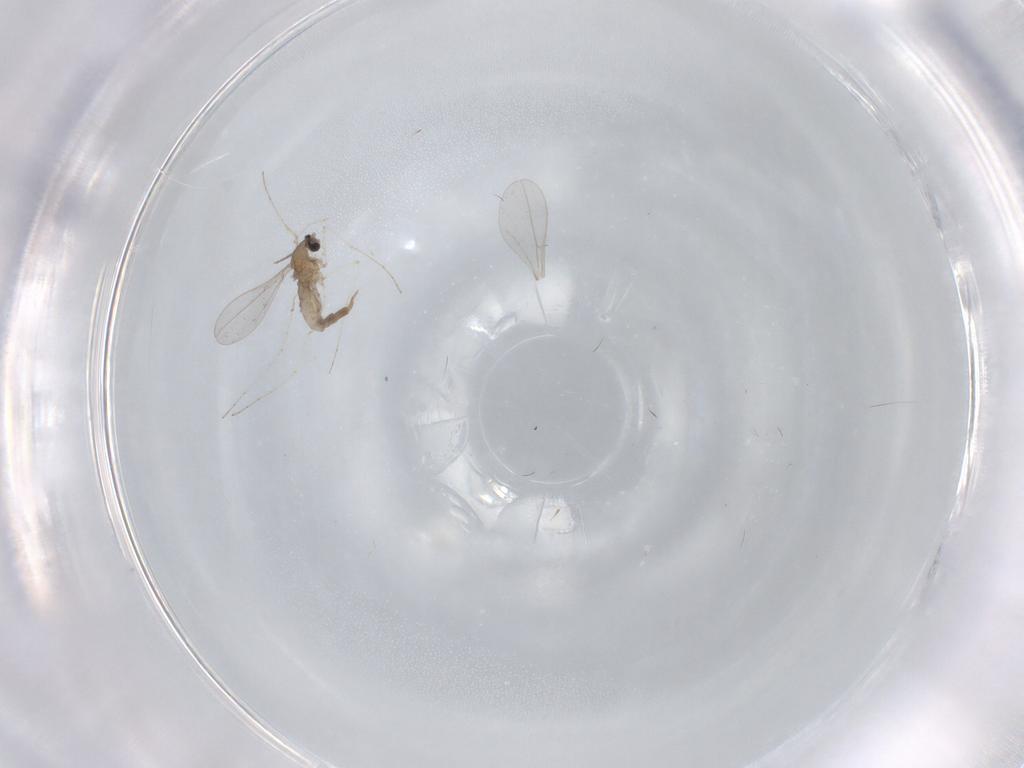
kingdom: Animalia
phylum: Arthropoda
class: Insecta
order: Diptera
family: Cecidomyiidae
